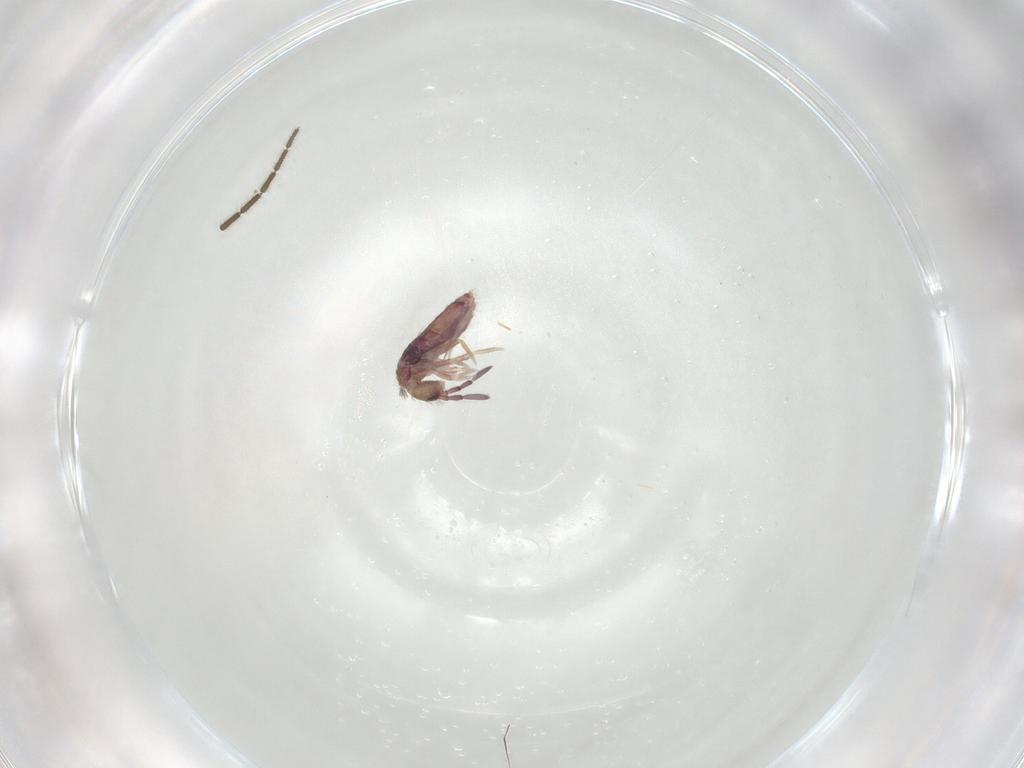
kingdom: Animalia
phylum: Arthropoda
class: Collembola
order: Entomobryomorpha
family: Entomobryidae
